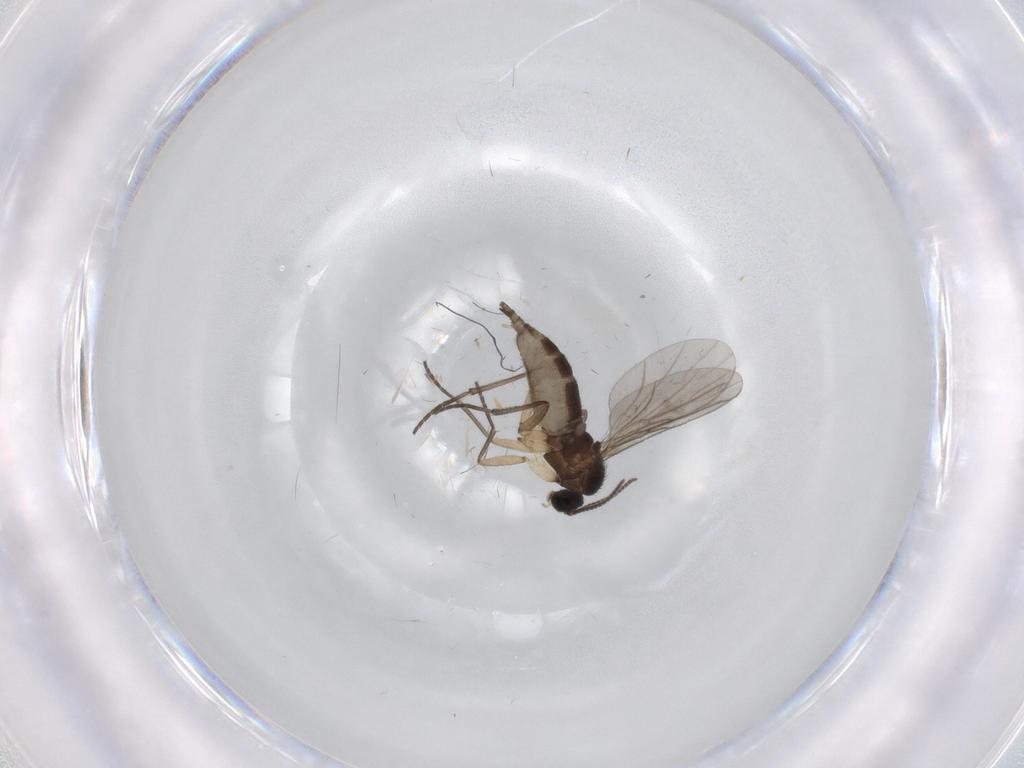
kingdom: Animalia
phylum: Arthropoda
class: Insecta
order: Diptera
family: Sciaridae
